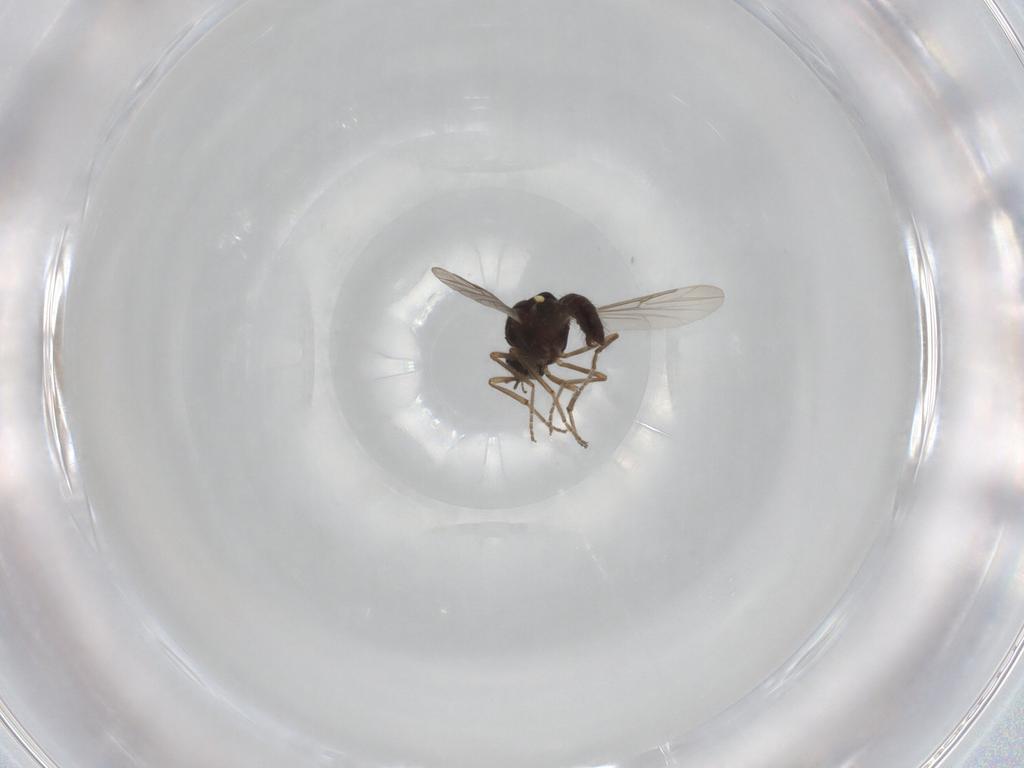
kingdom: Animalia
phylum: Arthropoda
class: Insecta
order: Diptera
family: Ceratopogonidae
